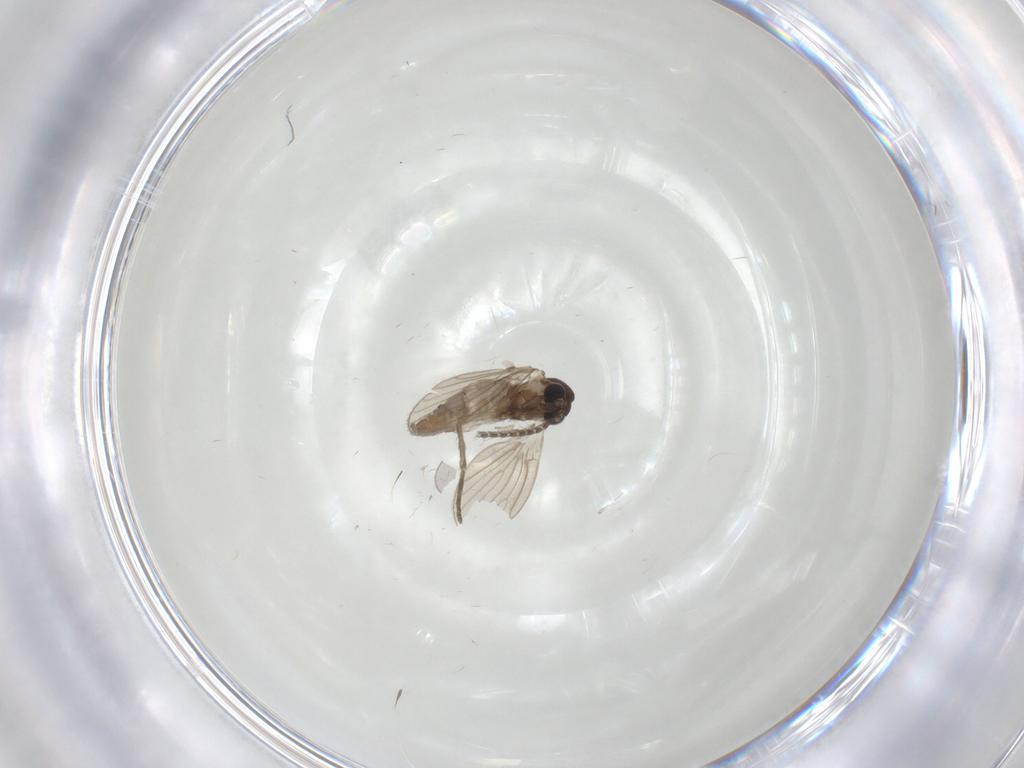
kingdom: Animalia
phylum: Arthropoda
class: Insecta
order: Diptera
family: Psychodidae
